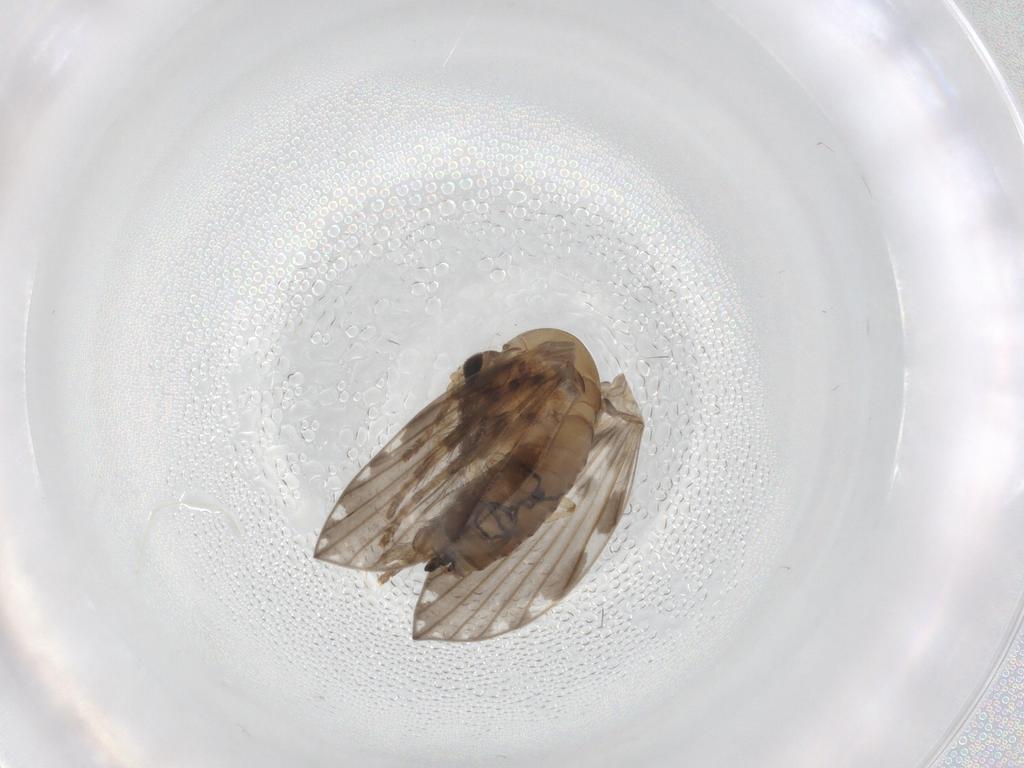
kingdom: Animalia
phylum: Arthropoda
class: Insecta
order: Diptera
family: Psychodidae
